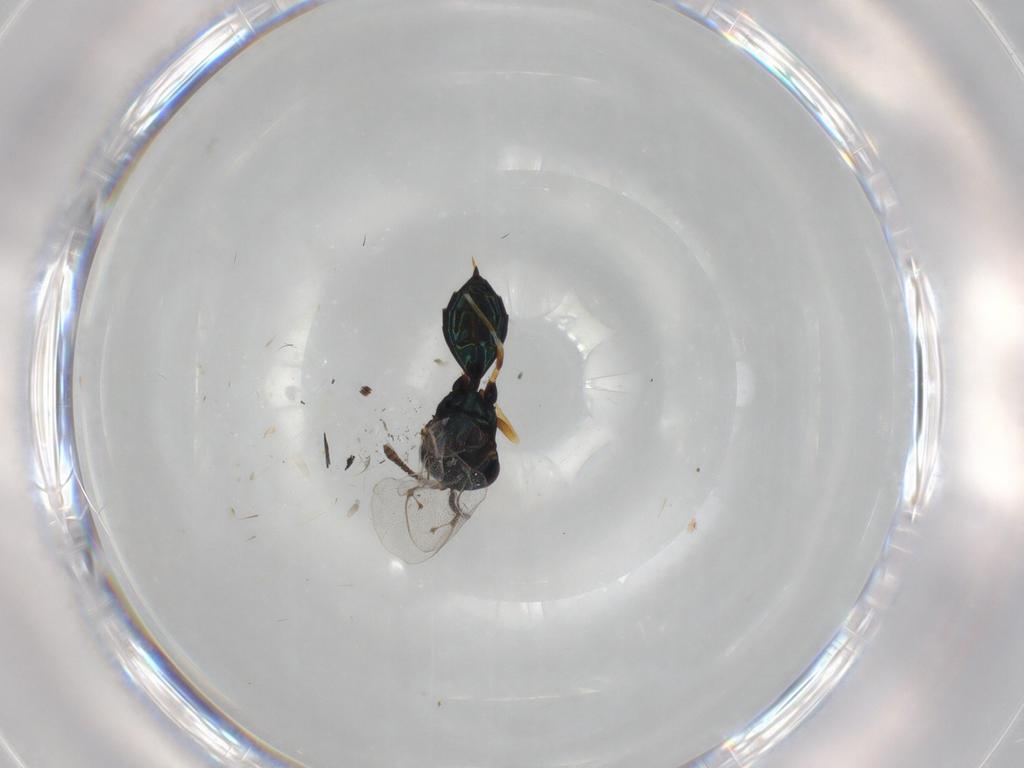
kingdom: Animalia
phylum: Arthropoda
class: Insecta
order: Hymenoptera
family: Pteromalidae
